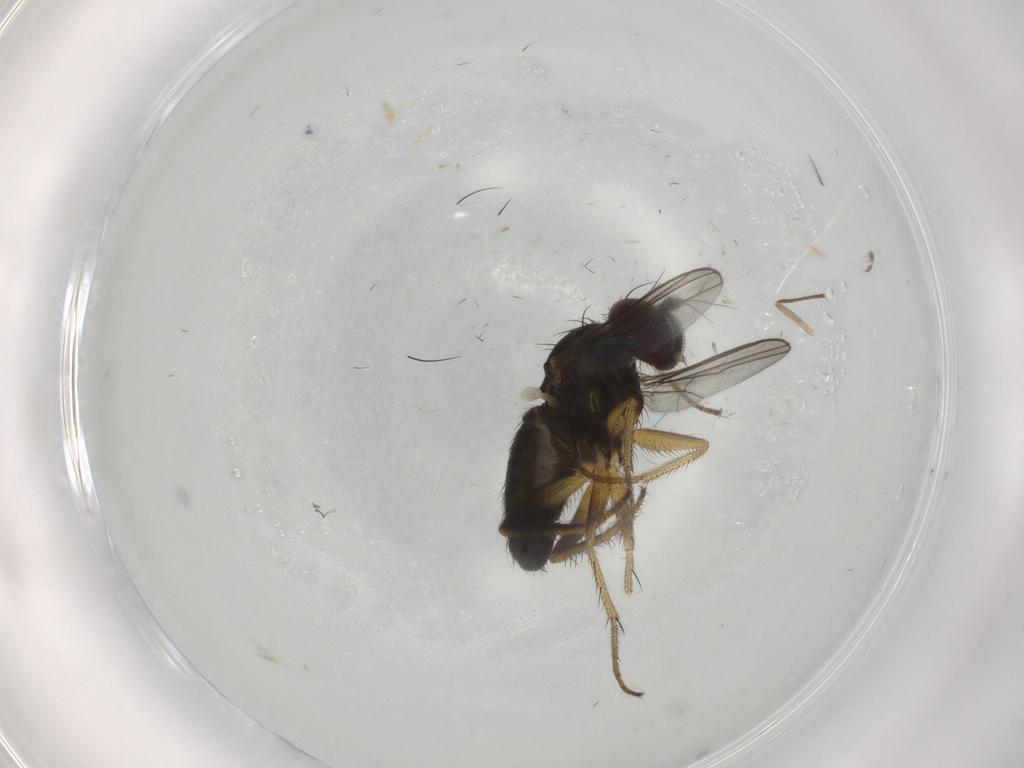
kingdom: Animalia
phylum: Arthropoda
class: Insecta
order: Diptera
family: Dolichopodidae
